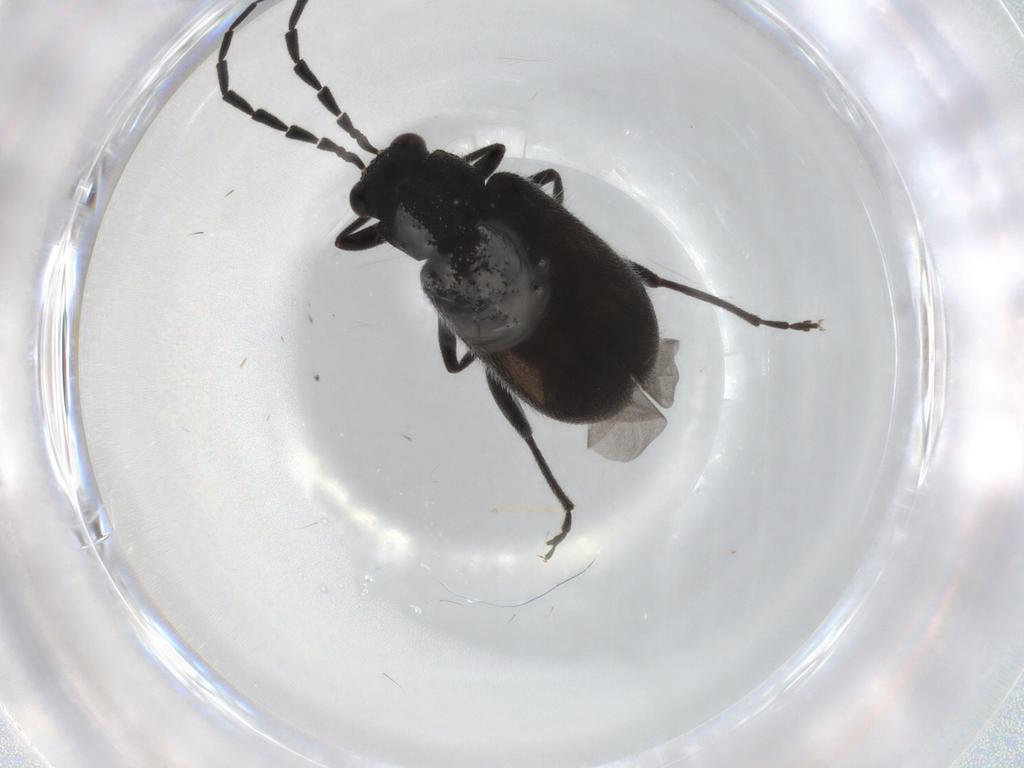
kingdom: Animalia
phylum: Arthropoda
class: Insecta
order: Coleoptera
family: Chrysomelidae
